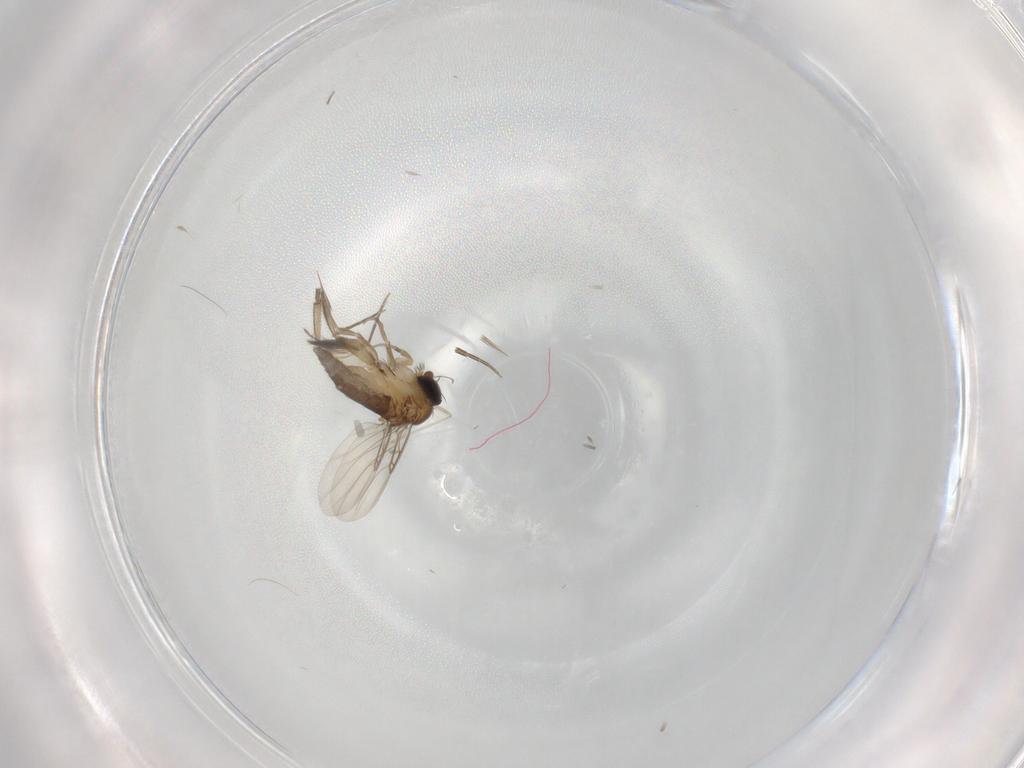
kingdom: Animalia
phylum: Arthropoda
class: Insecta
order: Diptera
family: Phoridae
